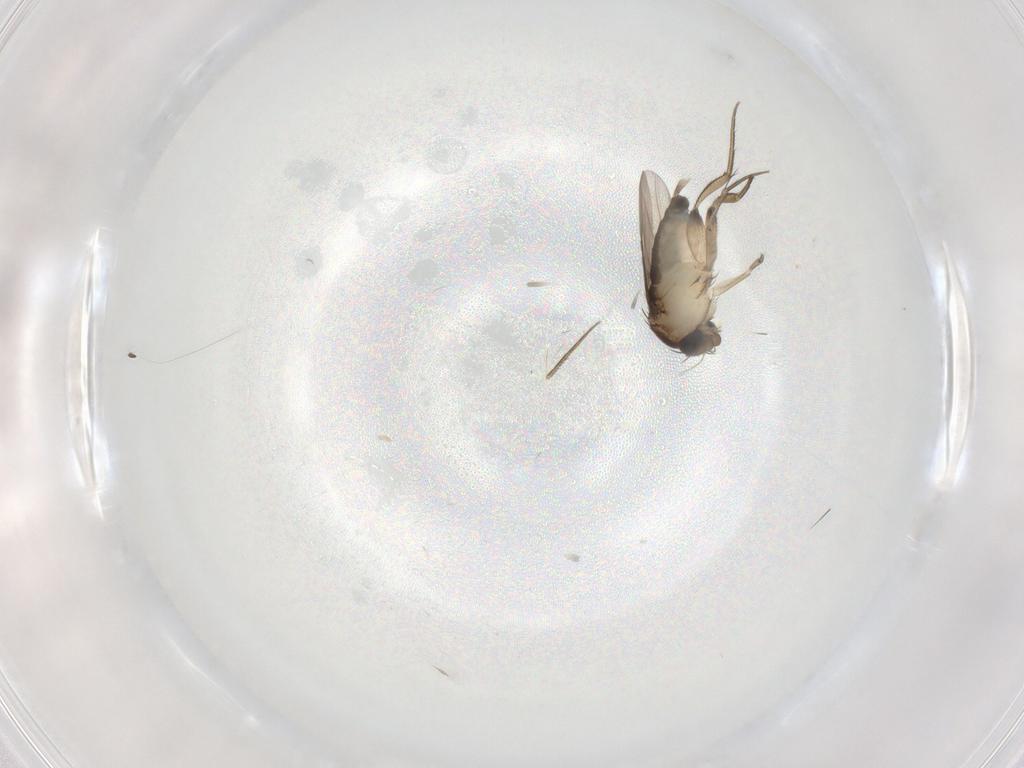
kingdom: Animalia
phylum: Arthropoda
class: Insecta
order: Diptera
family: Phoridae
